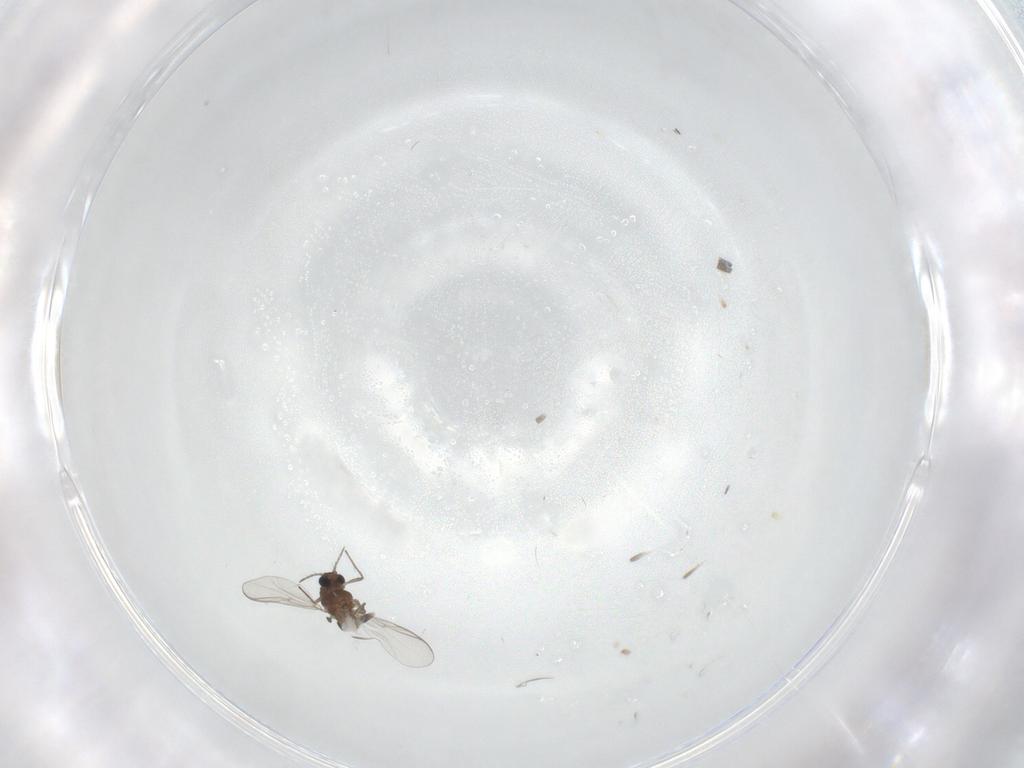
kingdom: Animalia
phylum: Arthropoda
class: Insecta
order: Diptera
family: Chironomidae
